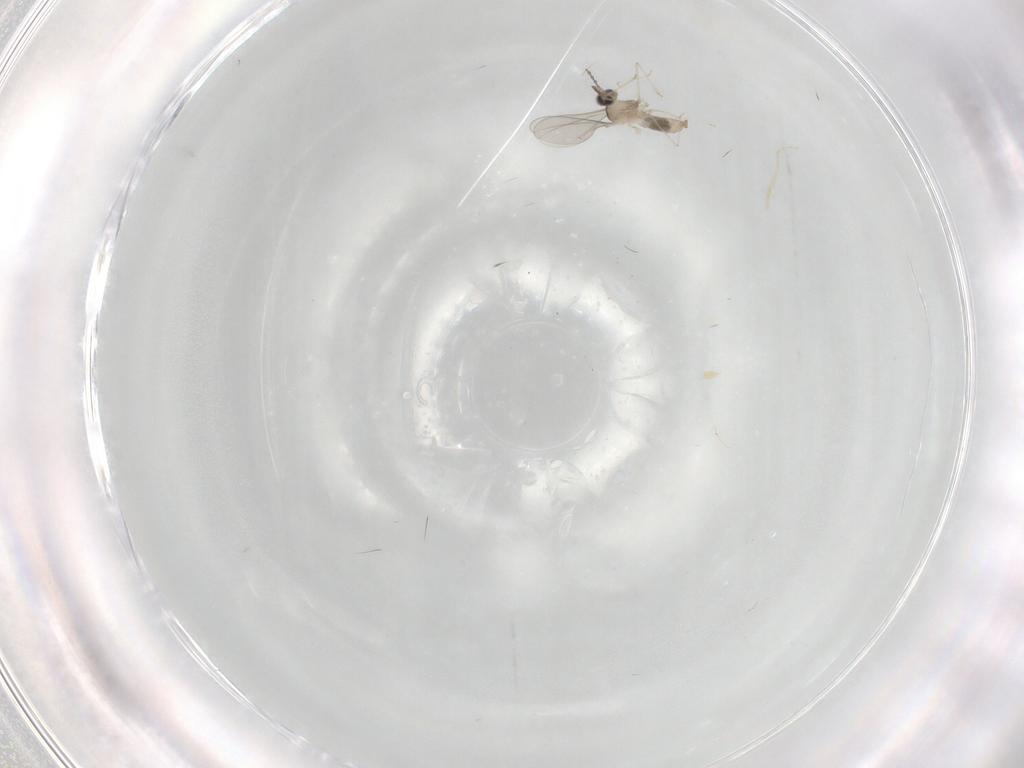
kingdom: Animalia
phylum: Arthropoda
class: Insecta
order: Diptera
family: Cecidomyiidae
